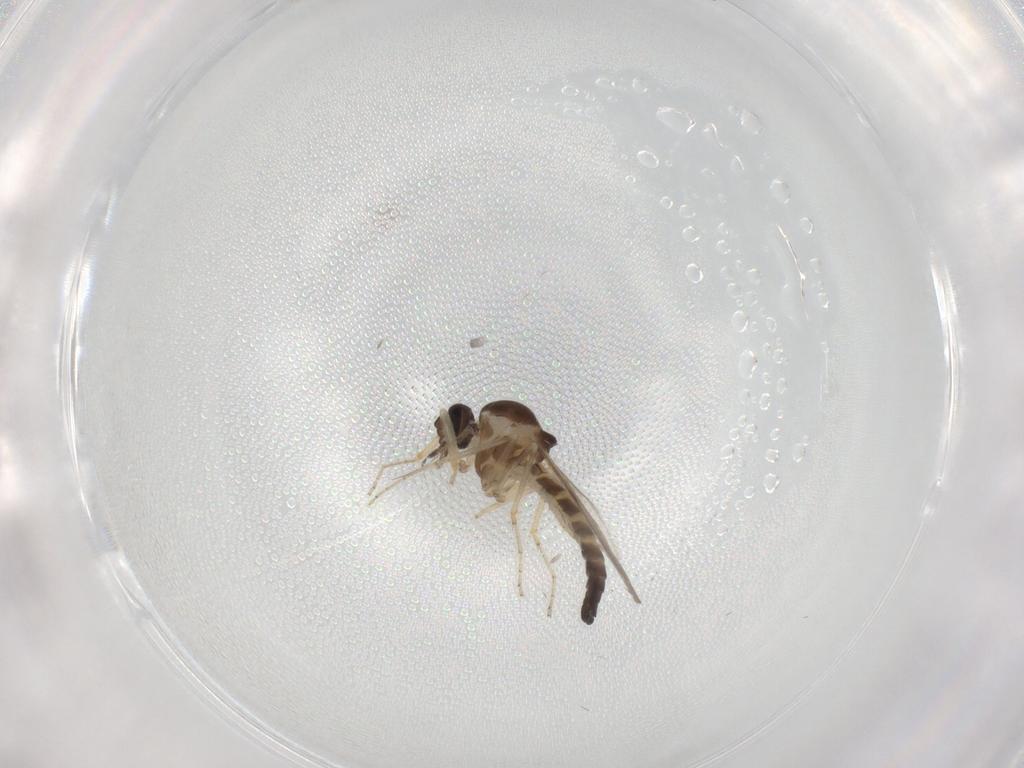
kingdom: Animalia
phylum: Arthropoda
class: Insecta
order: Diptera
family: Ceratopogonidae
